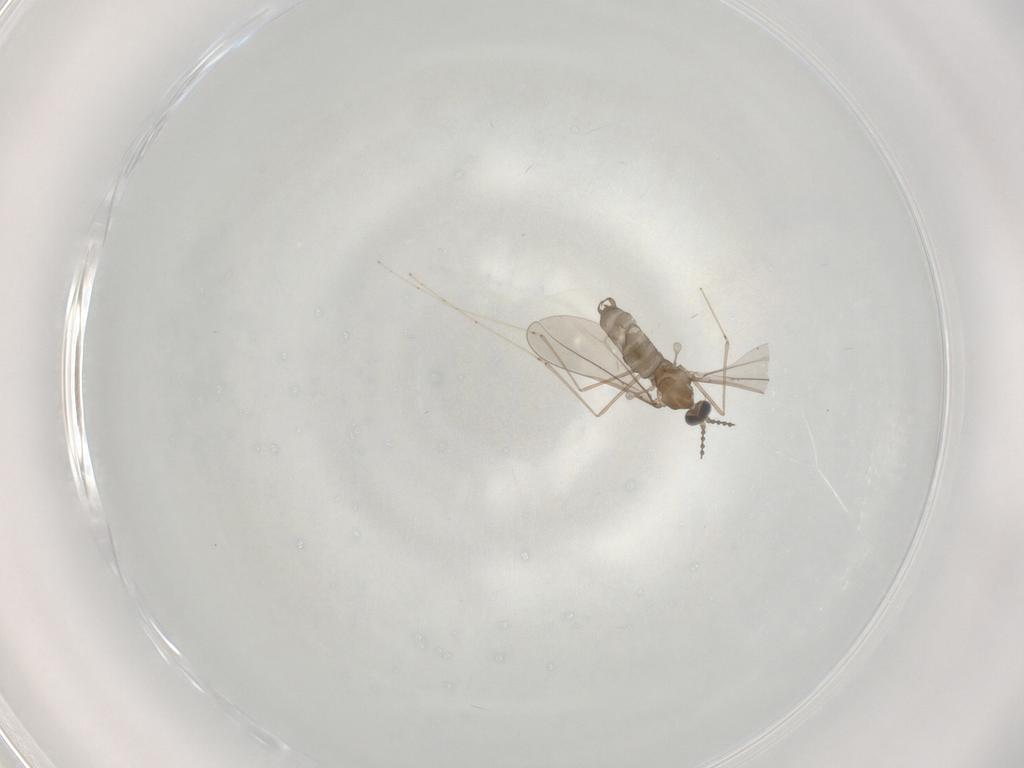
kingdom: Animalia
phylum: Arthropoda
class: Insecta
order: Diptera
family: Cecidomyiidae
